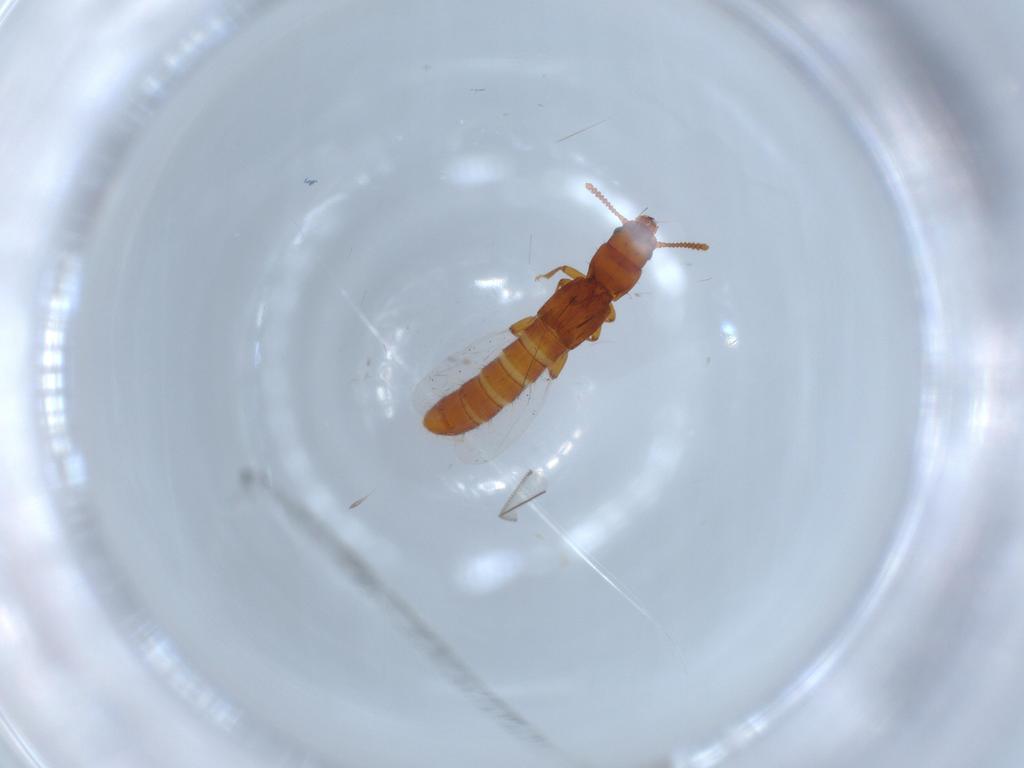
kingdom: Animalia
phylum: Arthropoda
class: Insecta
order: Coleoptera
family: Staphylinidae
